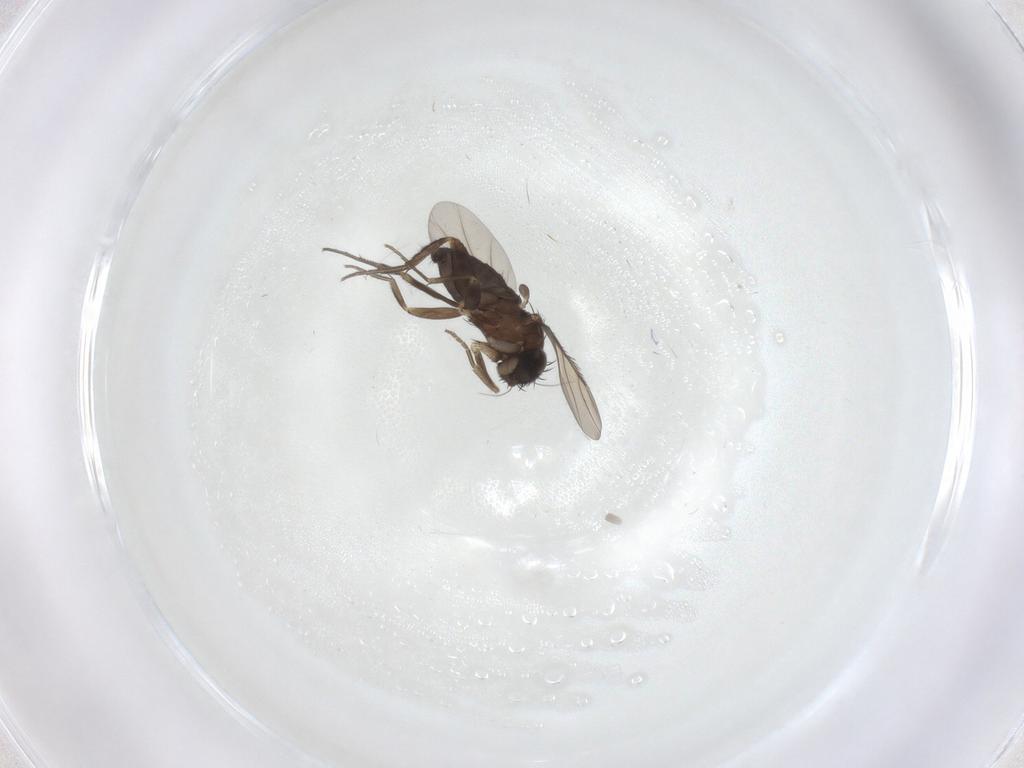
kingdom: Animalia
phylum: Arthropoda
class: Insecta
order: Diptera
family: Phoridae
